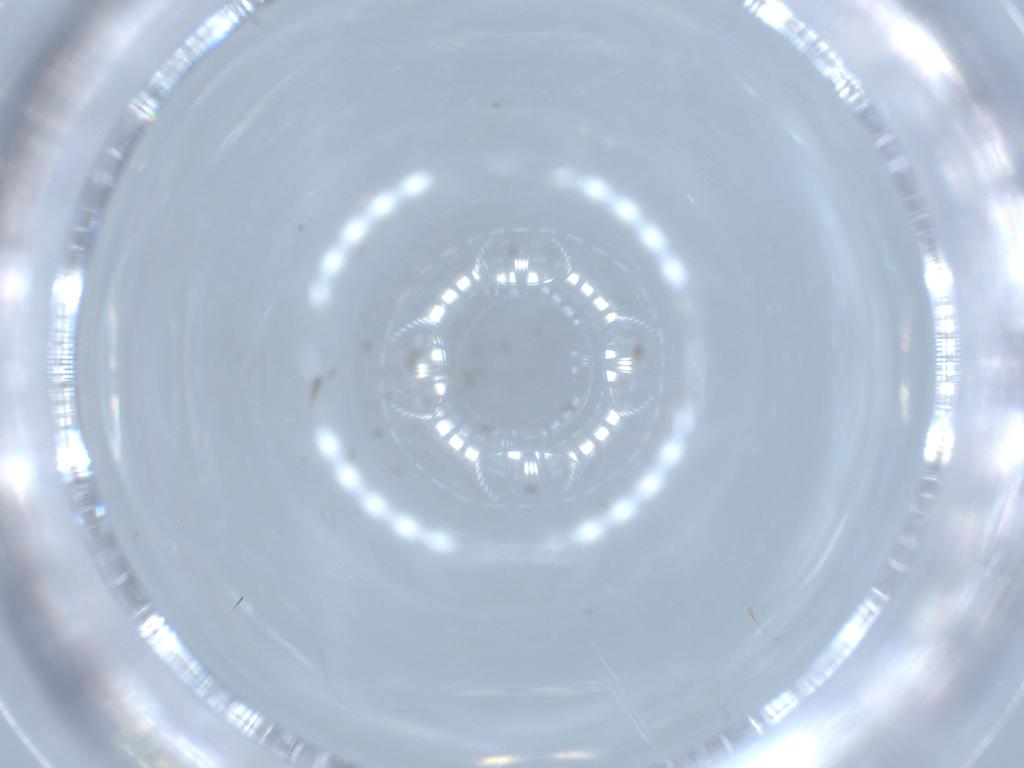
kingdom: Animalia
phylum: Arthropoda
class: Insecta
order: Diptera
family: Chironomidae
